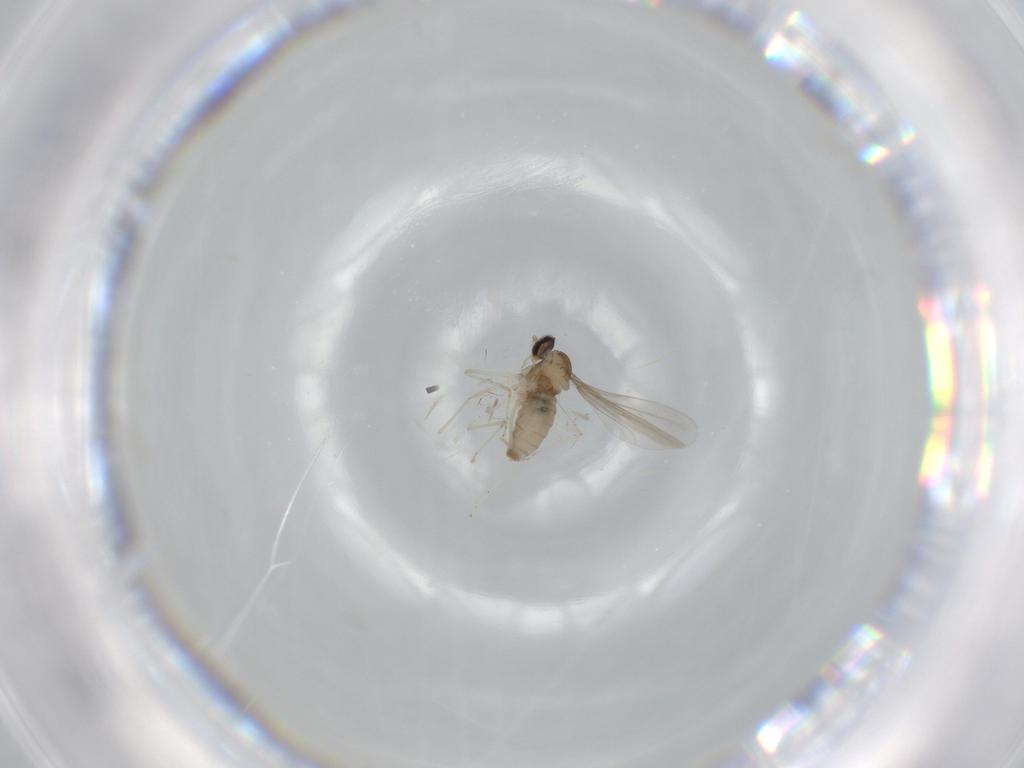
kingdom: Animalia
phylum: Arthropoda
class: Insecta
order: Diptera
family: Cecidomyiidae
